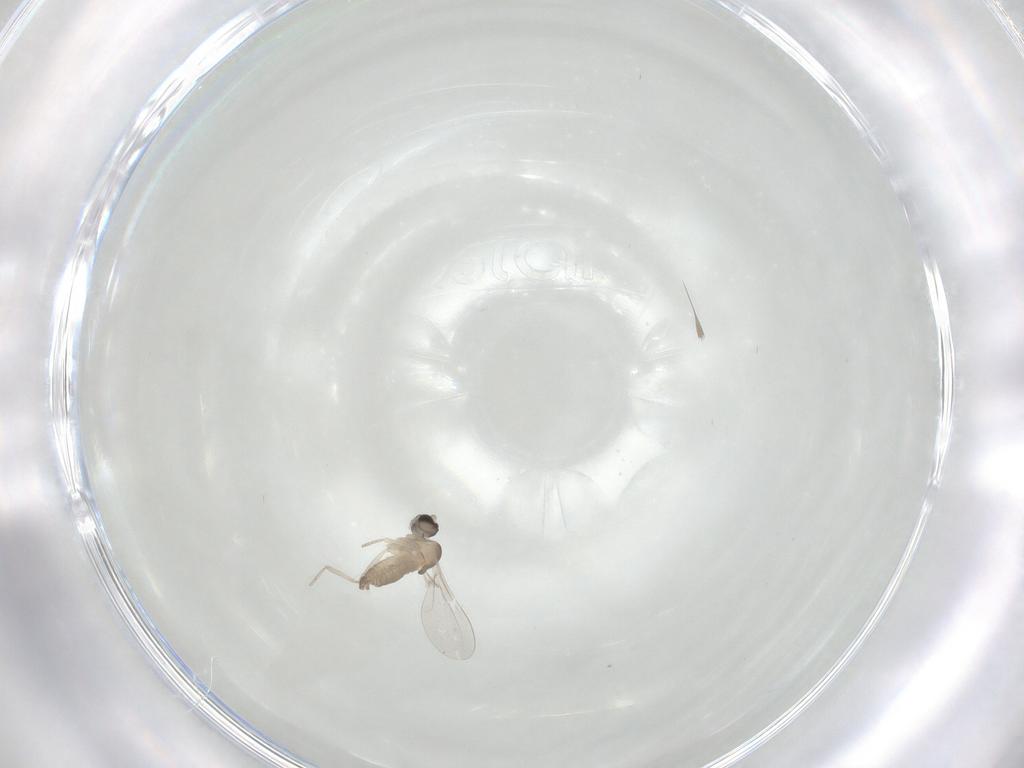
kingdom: Animalia
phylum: Arthropoda
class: Insecta
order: Diptera
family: Cecidomyiidae
